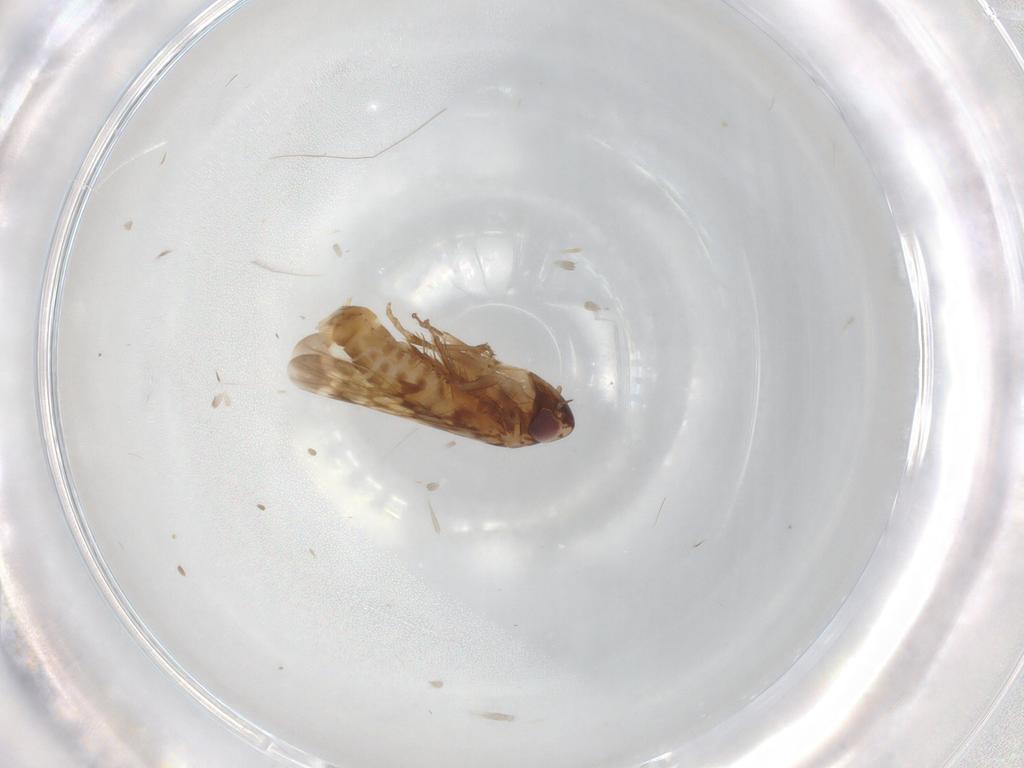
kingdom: Animalia
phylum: Arthropoda
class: Insecta
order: Hemiptera
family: Cicadellidae
